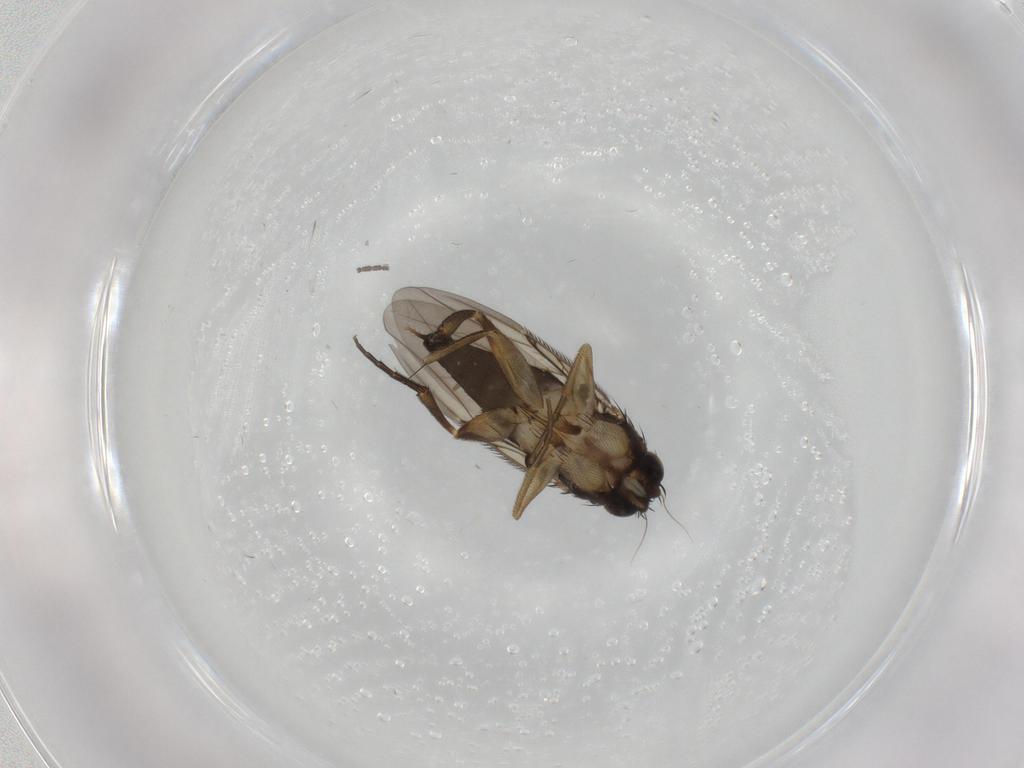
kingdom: Animalia
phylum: Arthropoda
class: Insecta
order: Diptera
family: Phoridae
